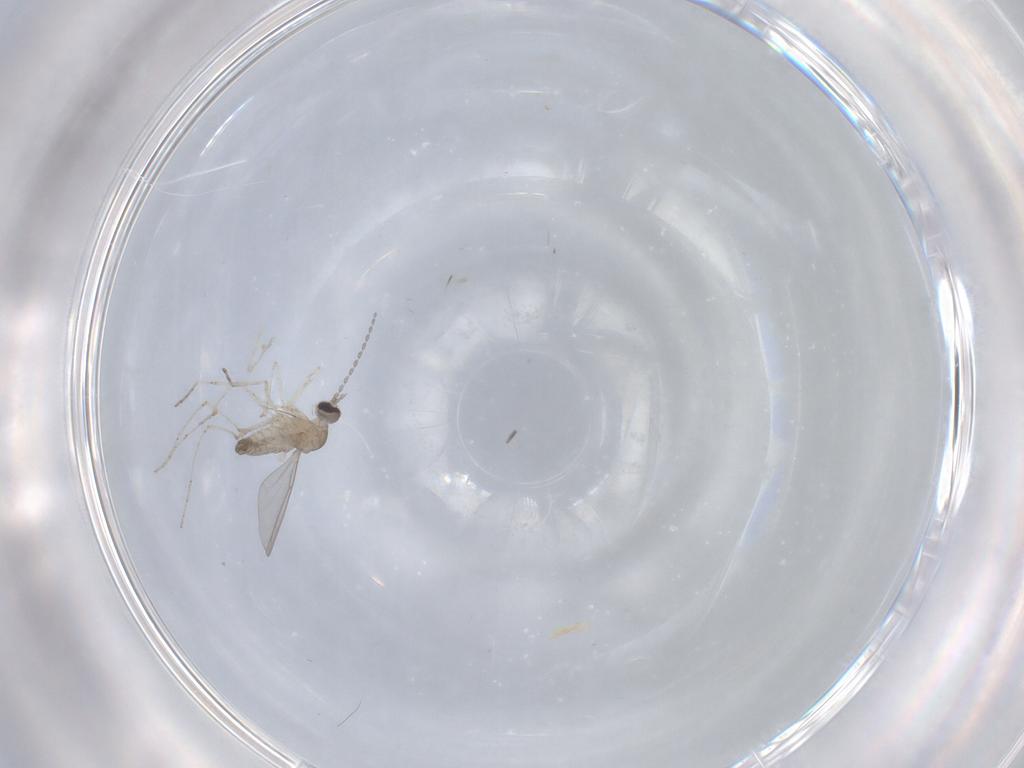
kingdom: Animalia
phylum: Arthropoda
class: Insecta
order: Diptera
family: Cecidomyiidae
